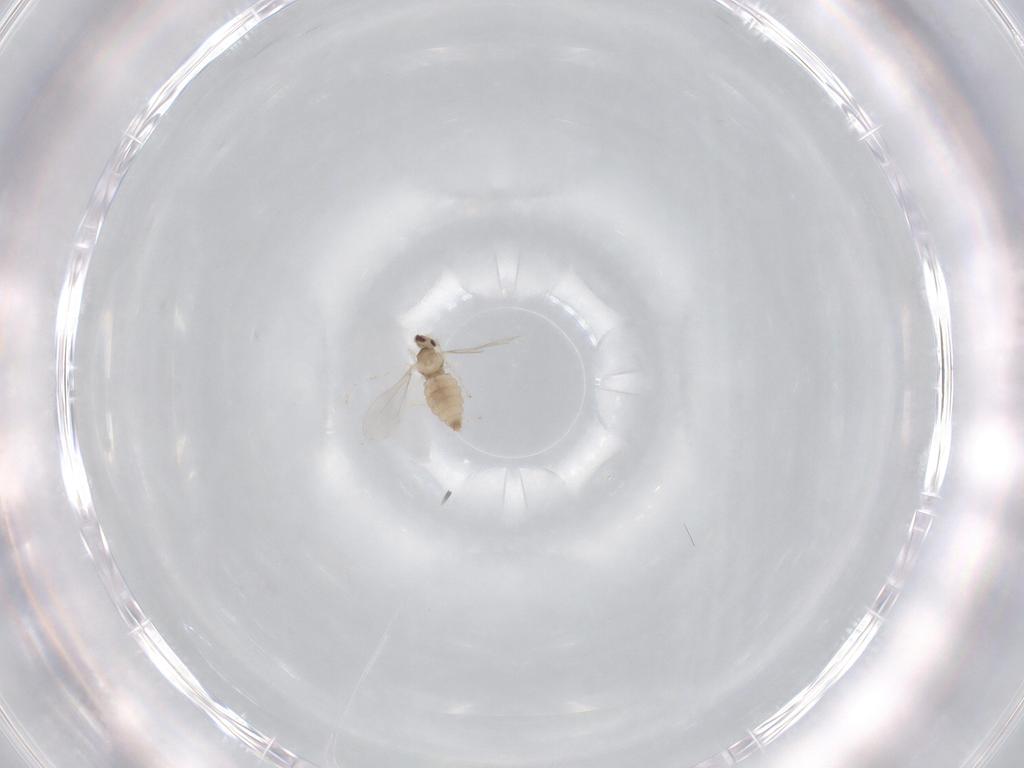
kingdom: Animalia
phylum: Arthropoda
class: Insecta
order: Diptera
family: Cecidomyiidae
